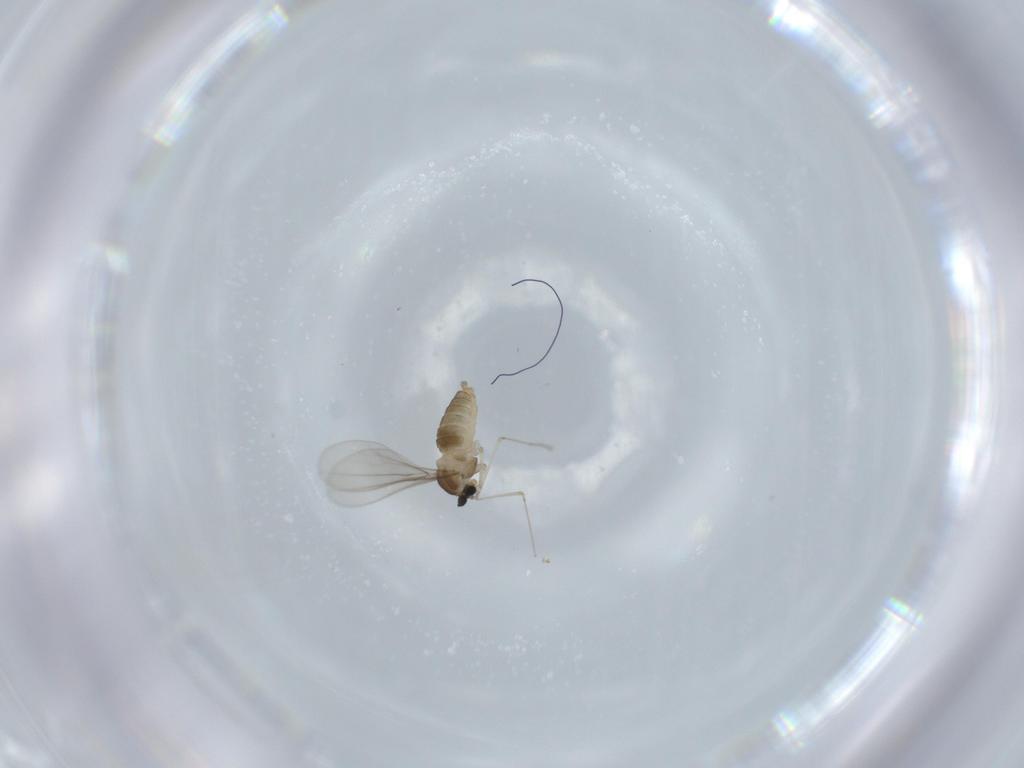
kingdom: Animalia
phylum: Arthropoda
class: Insecta
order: Diptera
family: Cecidomyiidae
